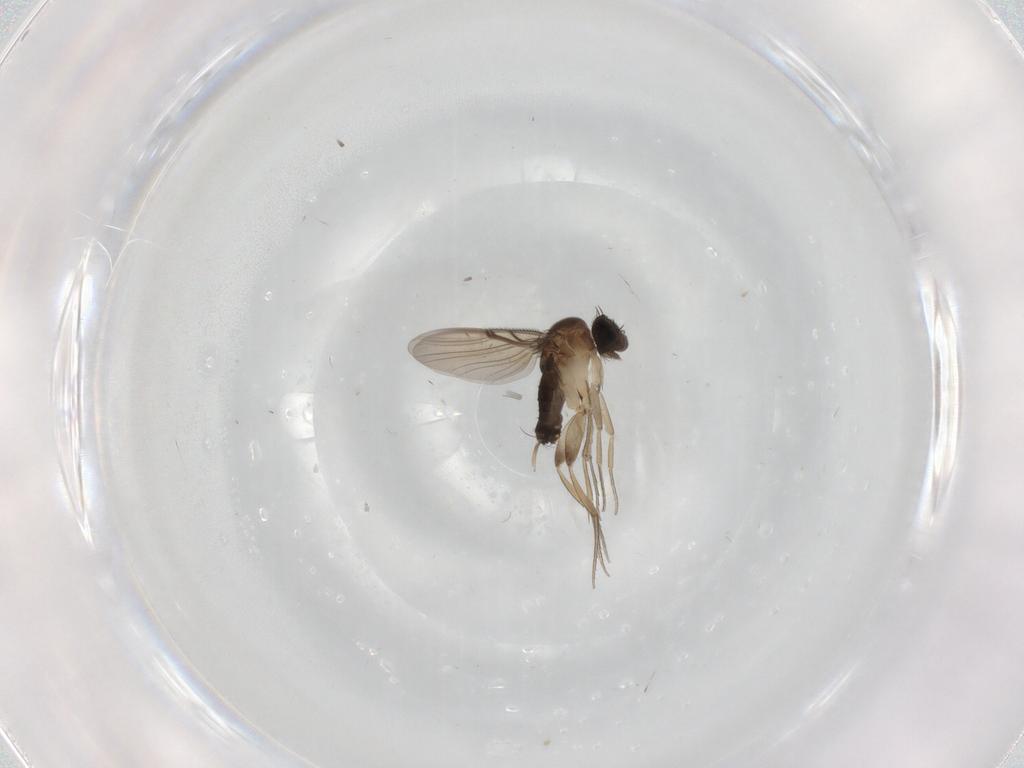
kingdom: Animalia
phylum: Arthropoda
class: Insecta
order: Diptera
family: Phoridae
